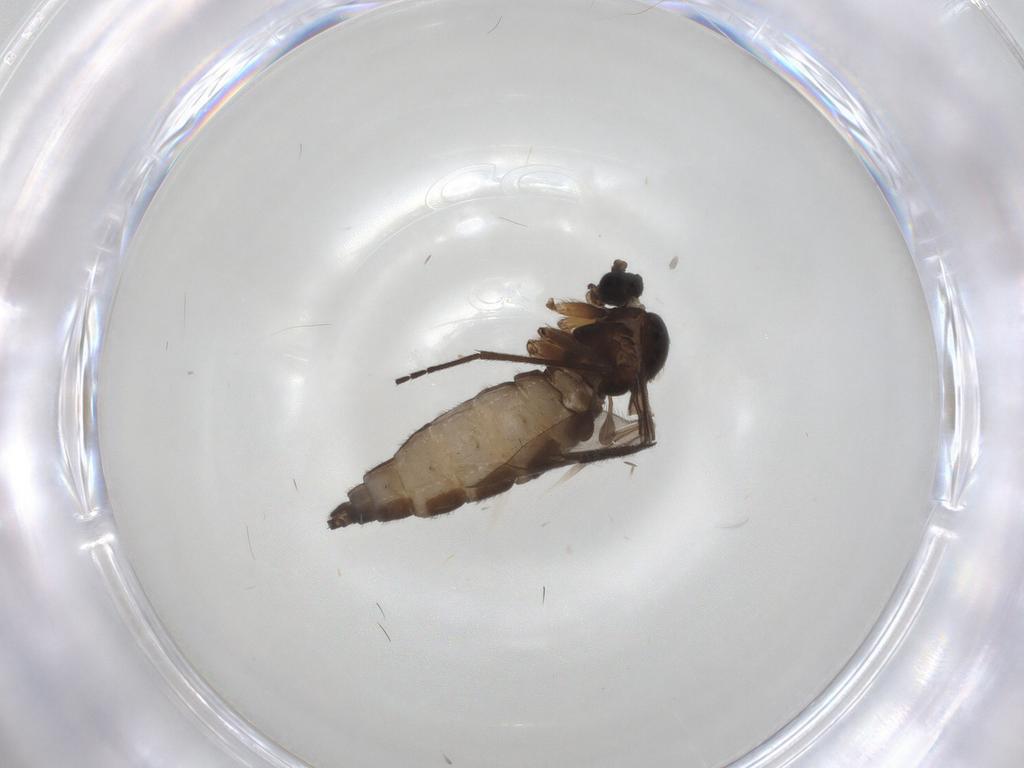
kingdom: Animalia
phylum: Arthropoda
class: Insecta
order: Diptera
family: Sciaridae
